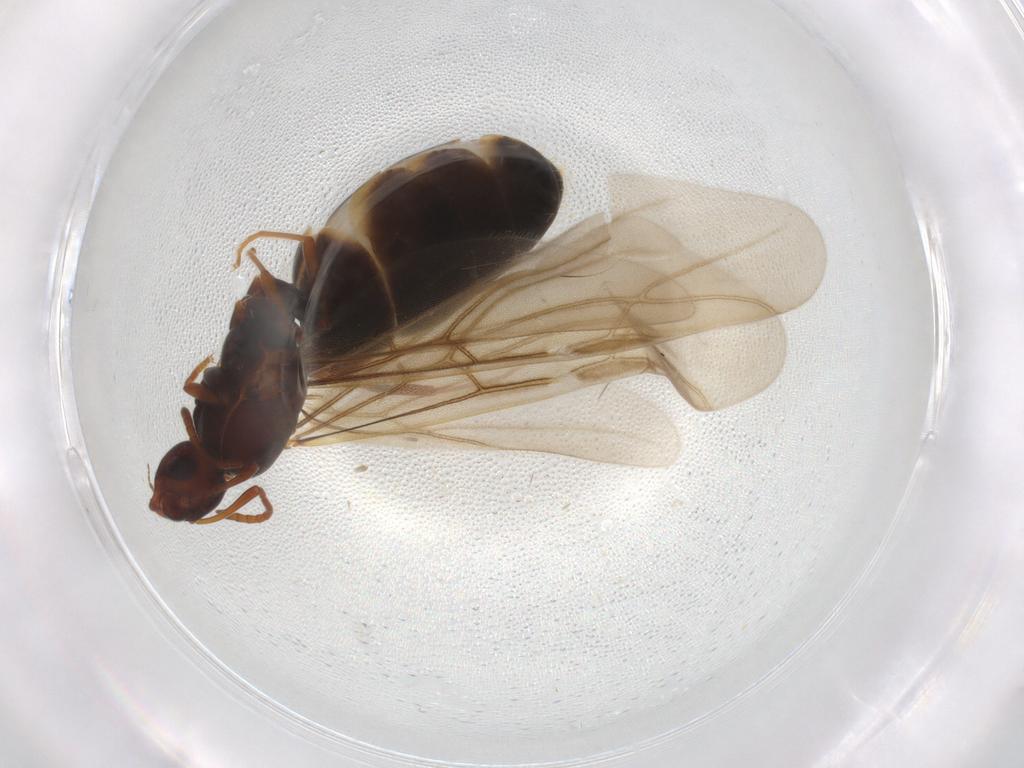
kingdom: Animalia
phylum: Arthropoda
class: Insecta
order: Hymenoptera
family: Formicidae
